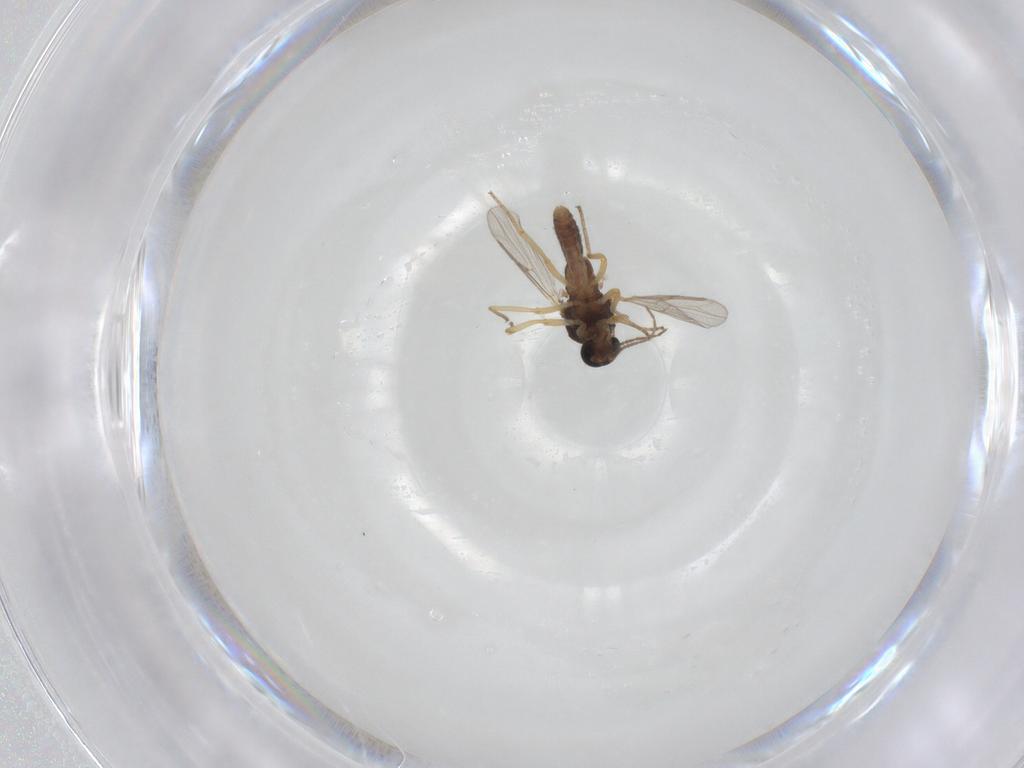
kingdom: Animalia
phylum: Arthropoda
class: Insecta
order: Diptera
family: Ceratopogonidae
